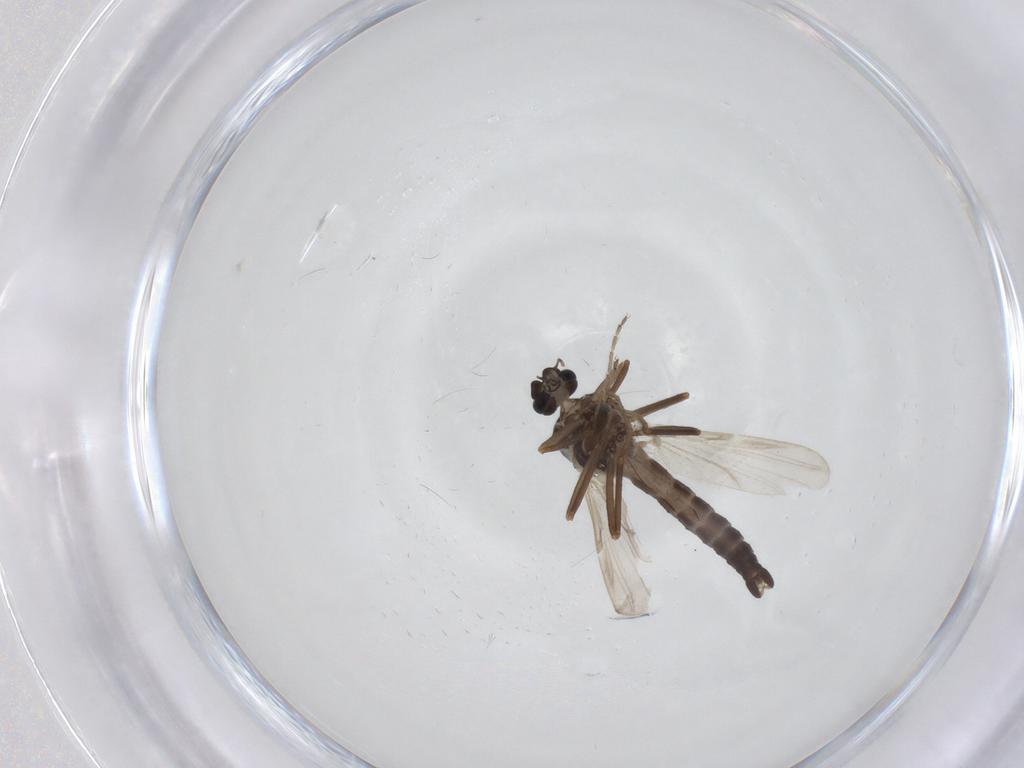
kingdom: Animalia
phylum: Arthropoda
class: Insecta
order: Diptera
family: Ceratopogonidae
